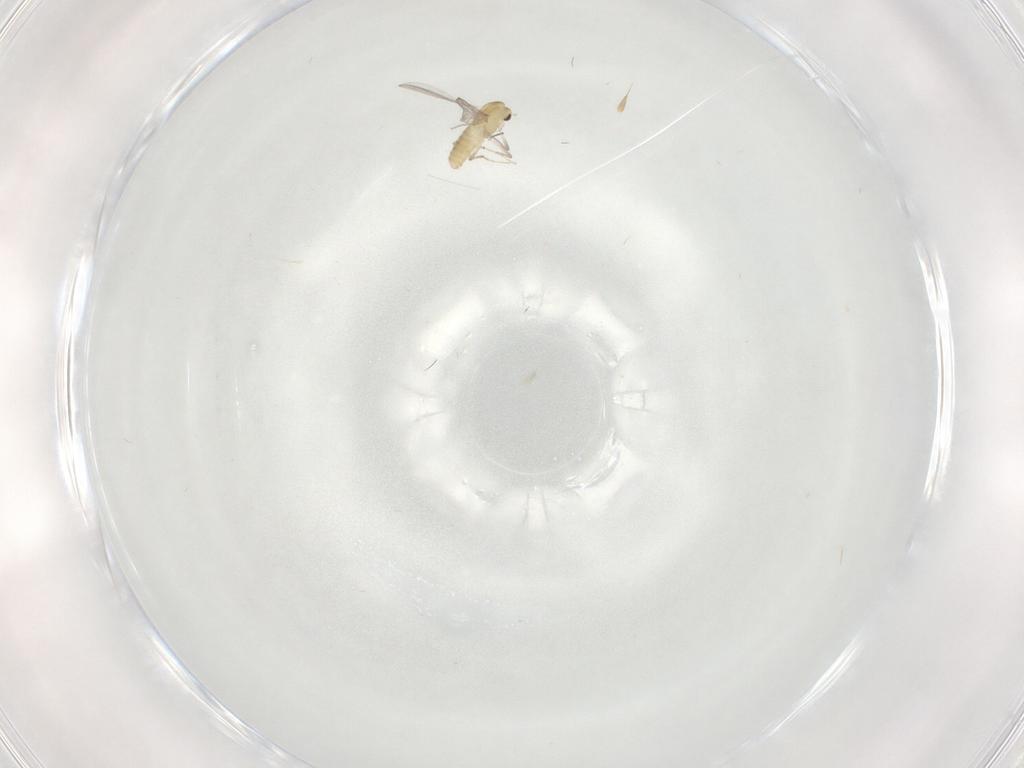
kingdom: Animalia
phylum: Arthropoda
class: Insecta
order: Diptera
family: Chironomidae
